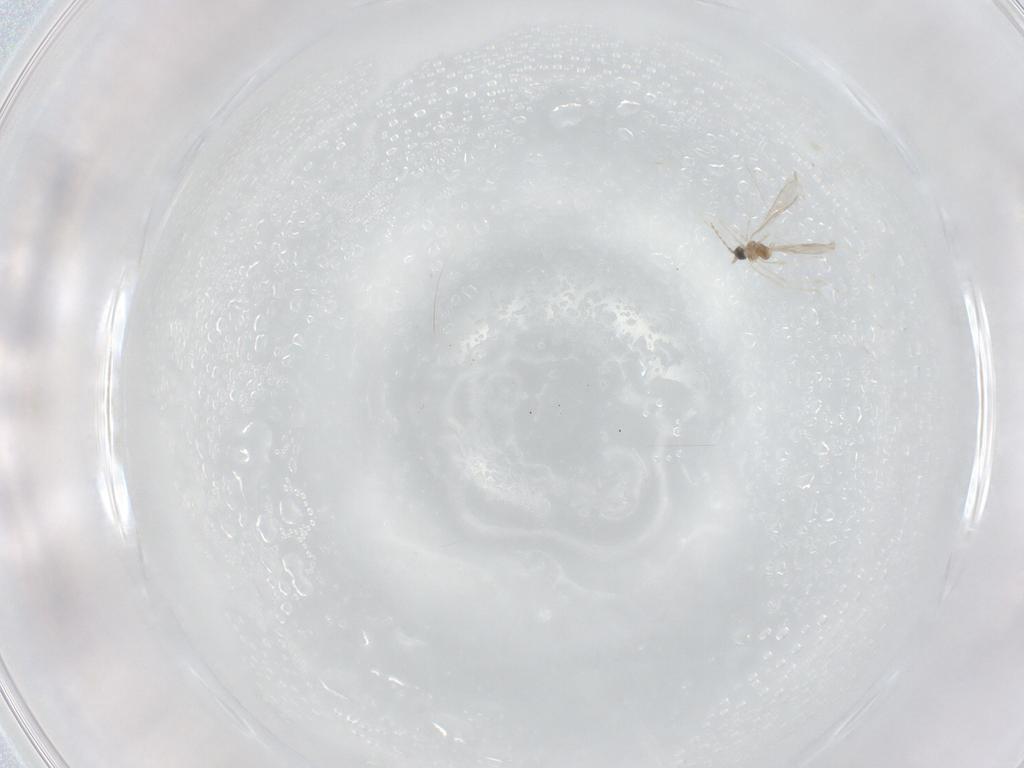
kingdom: Animalia
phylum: Arthropoda
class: Insecta
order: Diptera
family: Cecidomyiidae
